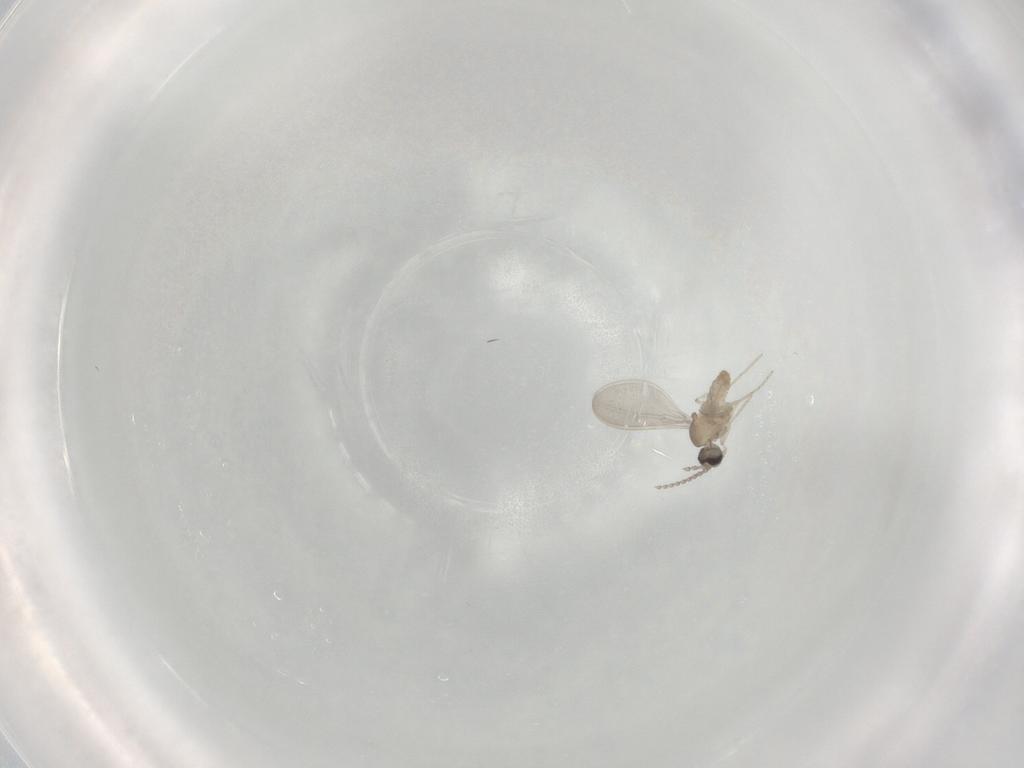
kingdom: Animalia
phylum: Arthropoda
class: Insecta
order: Diptera
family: Cecidomyiidae
